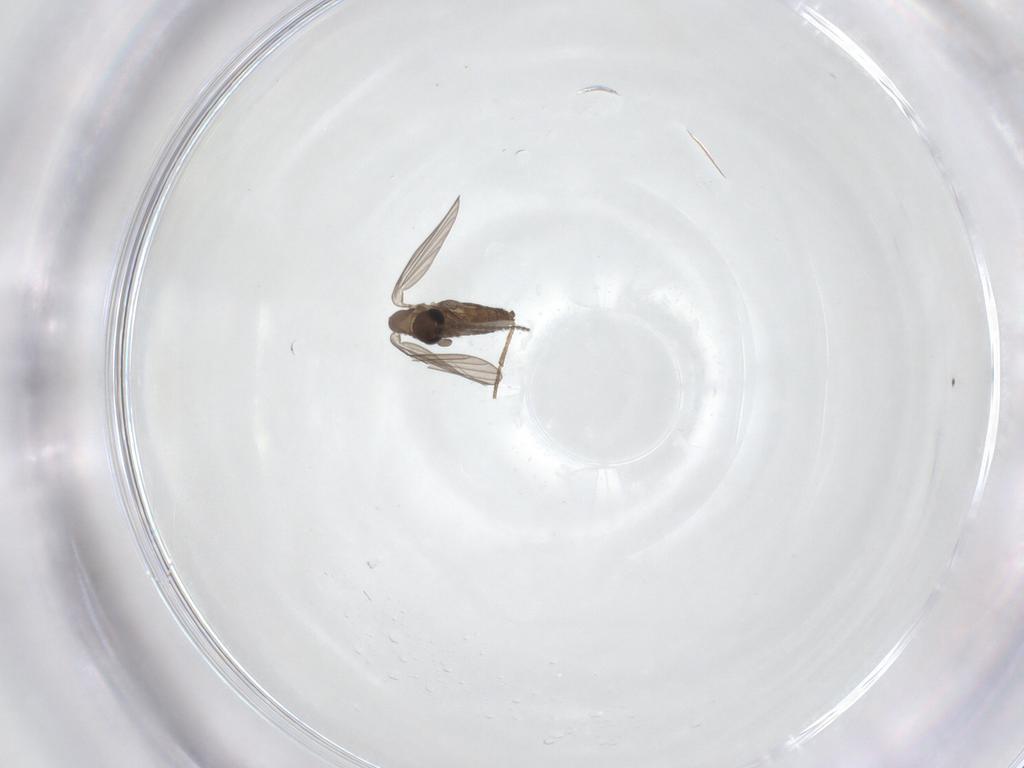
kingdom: Animalia
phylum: Arthropoda
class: Insecta
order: Diptera
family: Psychodidae
